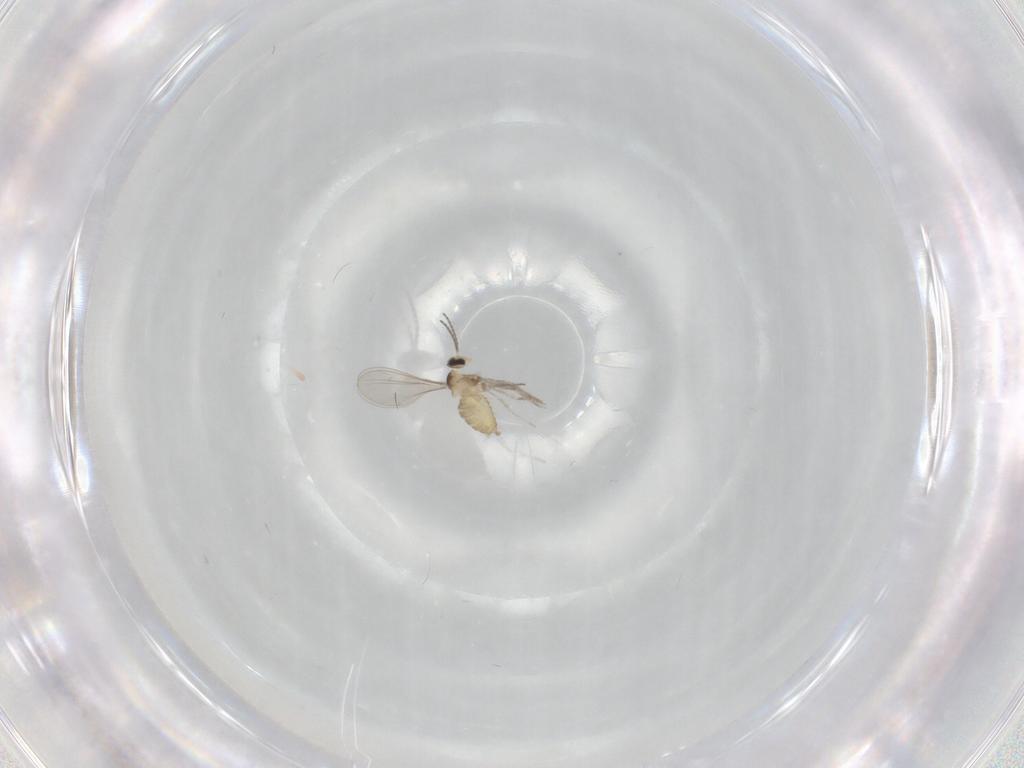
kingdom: Animalia
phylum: Arthropoda
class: Insecta
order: Diptera
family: Cecidomyiidae
